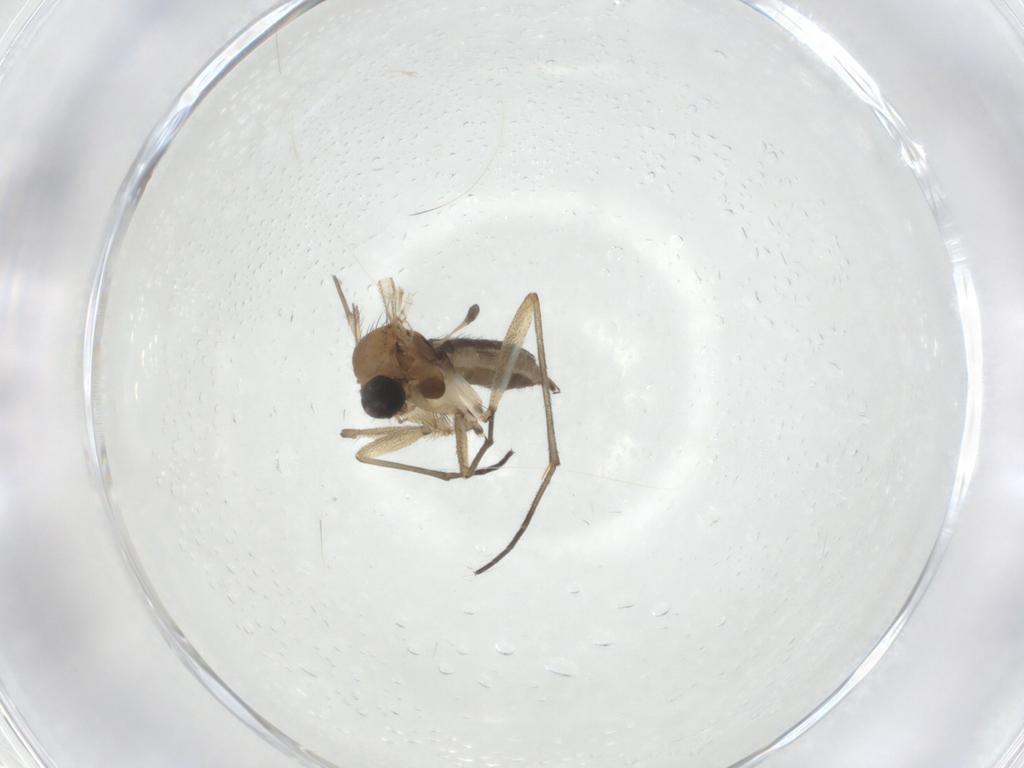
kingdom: Animalia
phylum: Arthropoda
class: Insecta
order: Diptera
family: Sciaridae
